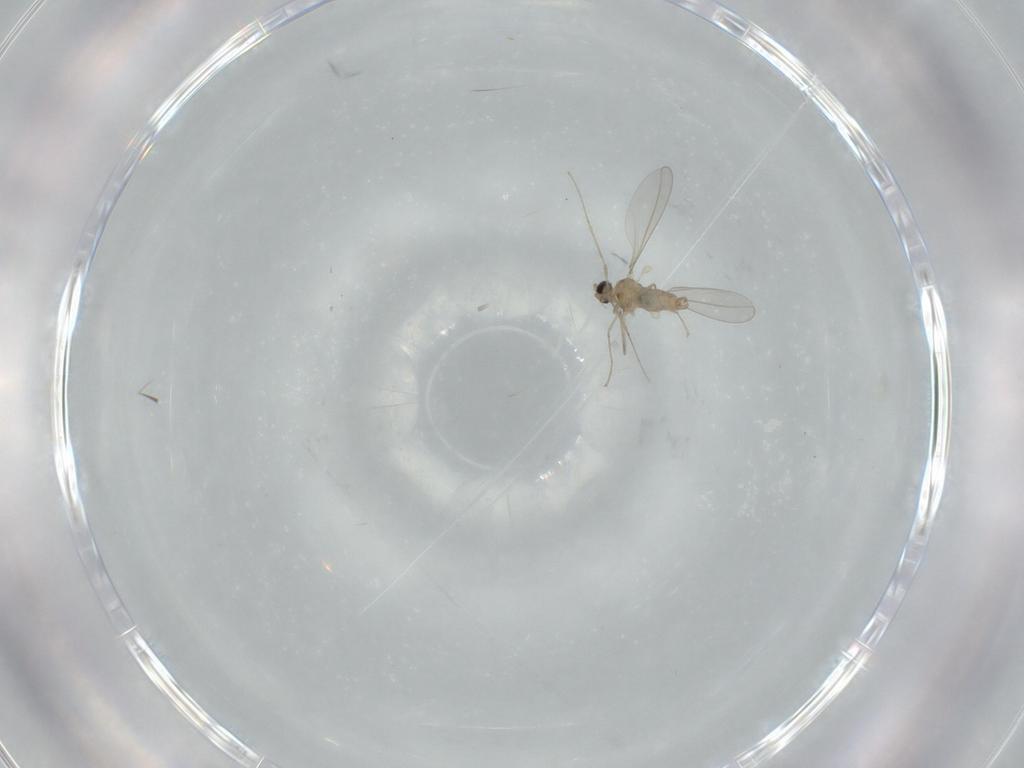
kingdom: Animalia
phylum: Arthropoda
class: Insecta
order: Diptera
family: Cecidomyiidae
